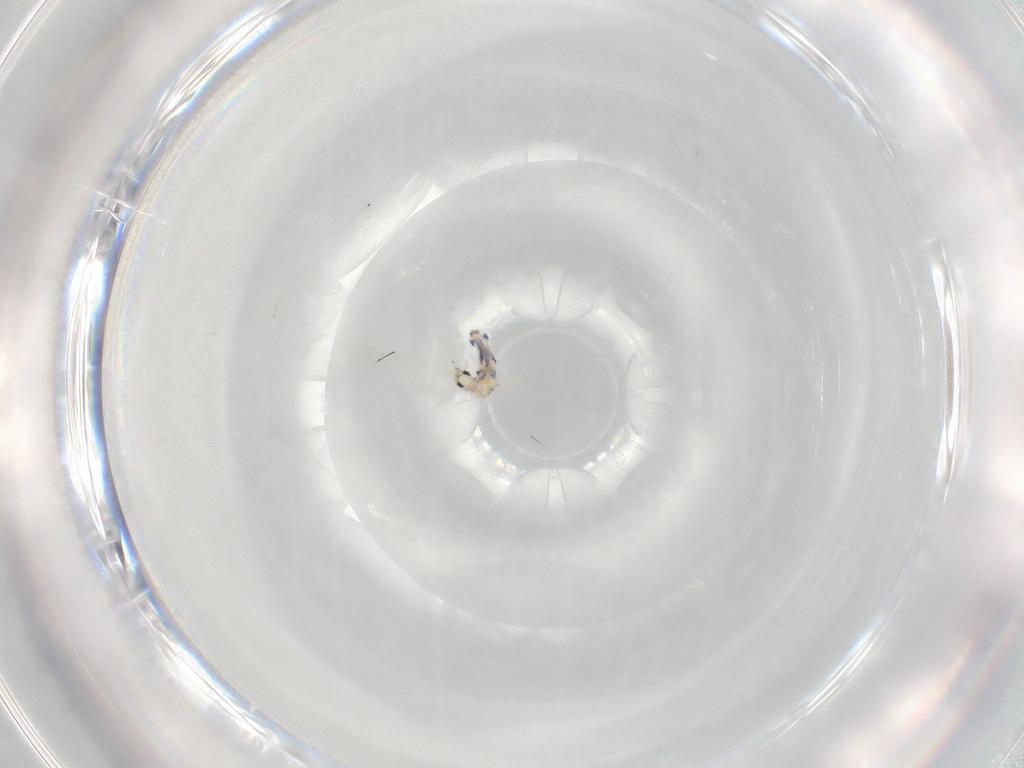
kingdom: Animalia
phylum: Arthropoda
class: Collembola
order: Entomobryomorpha
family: Entomobryidae
